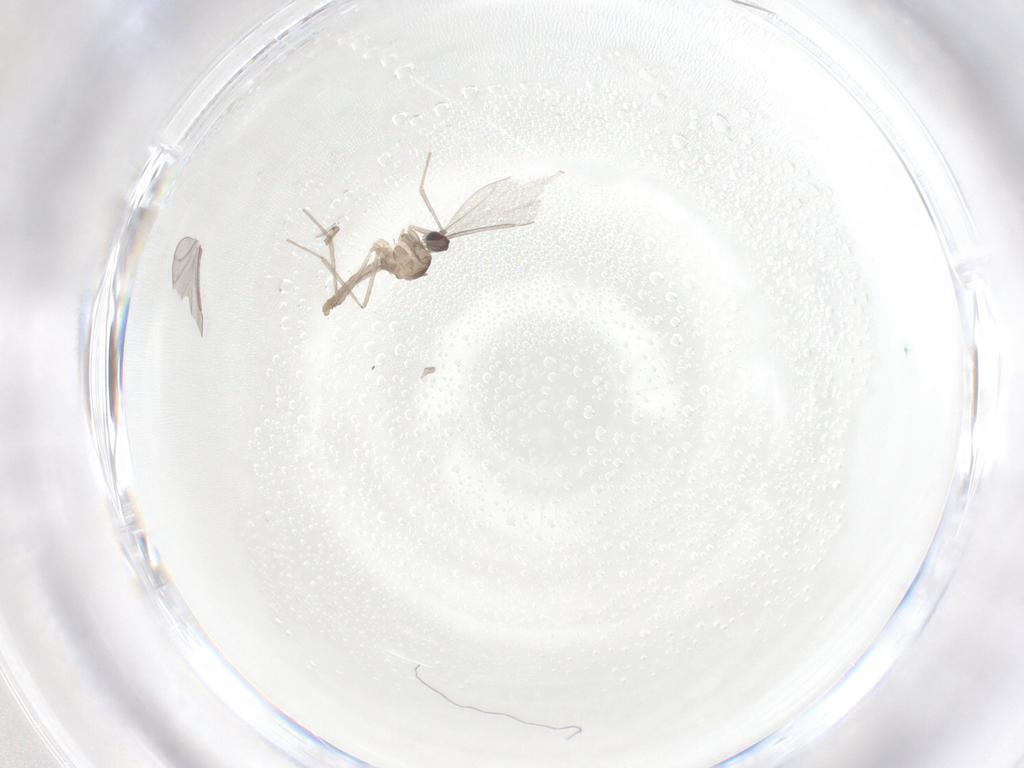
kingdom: Animalia
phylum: Arthropoda
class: Insecta
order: Diptera
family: Cecidomyiidae
